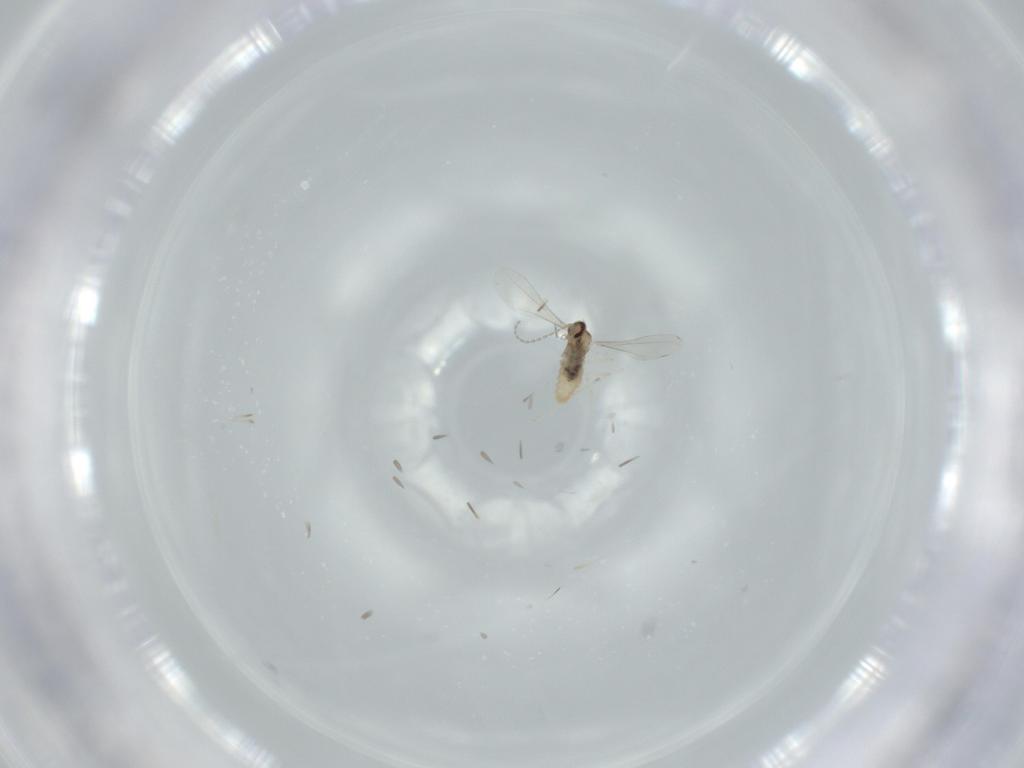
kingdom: Animalia
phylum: Arthropoda
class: Insecta
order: Diptera
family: Cecidomyiidae
